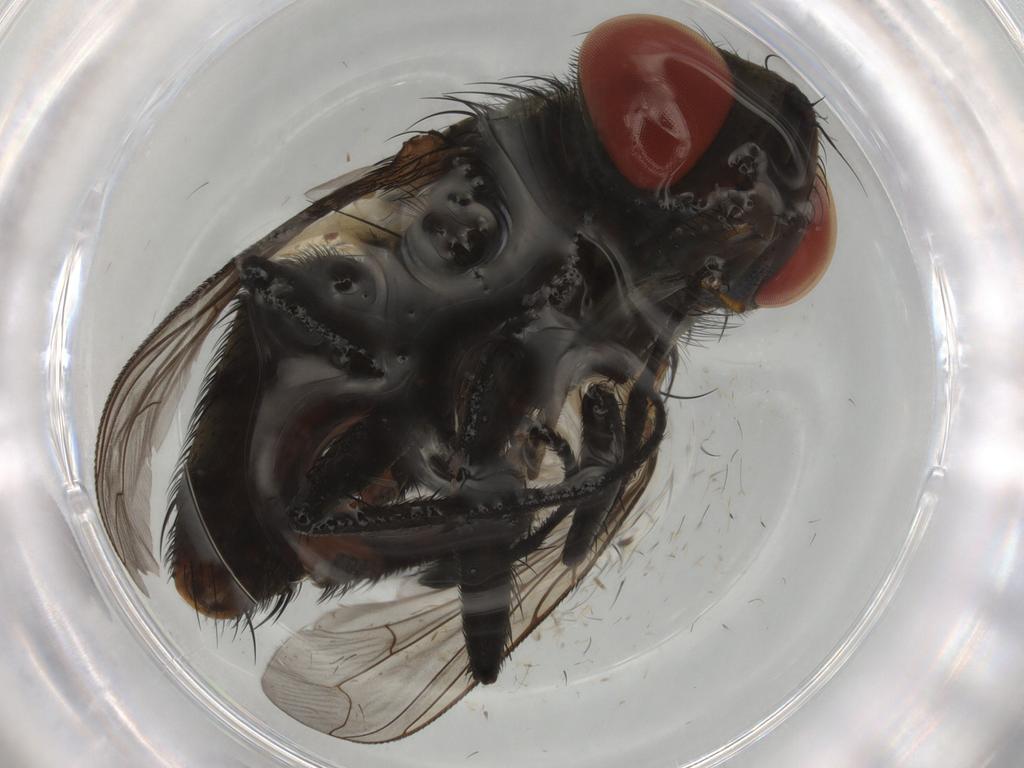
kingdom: Animalia
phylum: Arthropoda
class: Insecta
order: Diptera
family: Sarcophagidae
